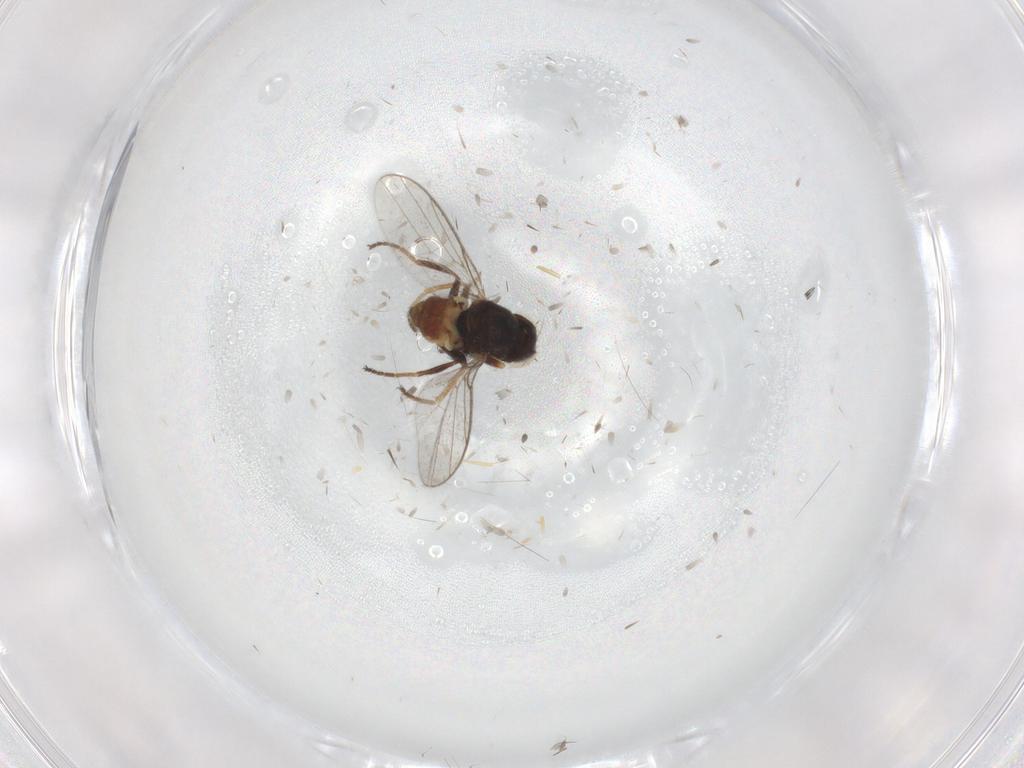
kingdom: Animalia
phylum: Arthropoda
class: Insecta
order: Diptera
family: Chloropidae
